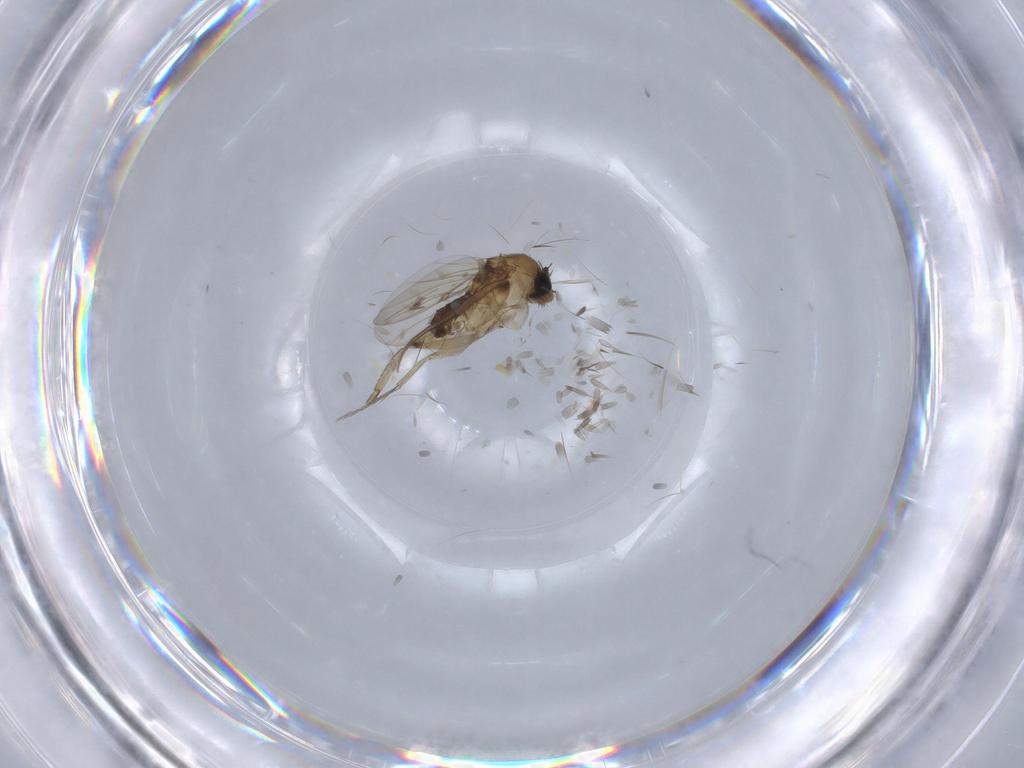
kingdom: Animalia
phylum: Arthropoda
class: Insecta
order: Diptera
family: Phoridae
